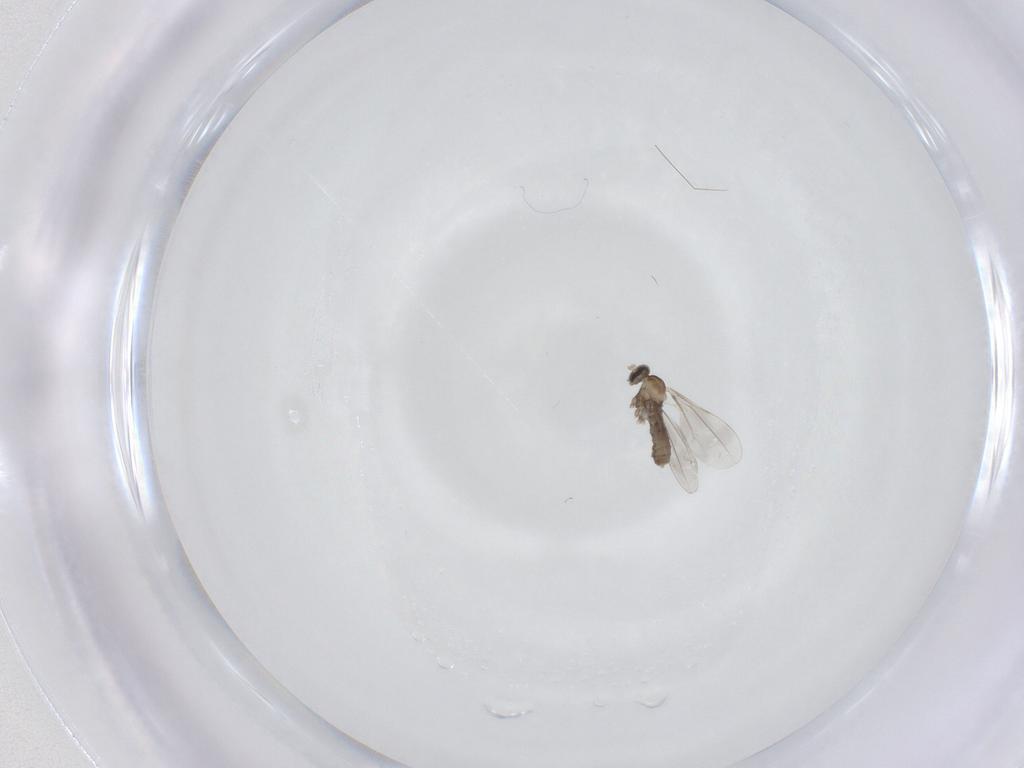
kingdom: Animalia
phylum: Arthropoda
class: Insecta
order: Diptera
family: Cecidomyiidae
